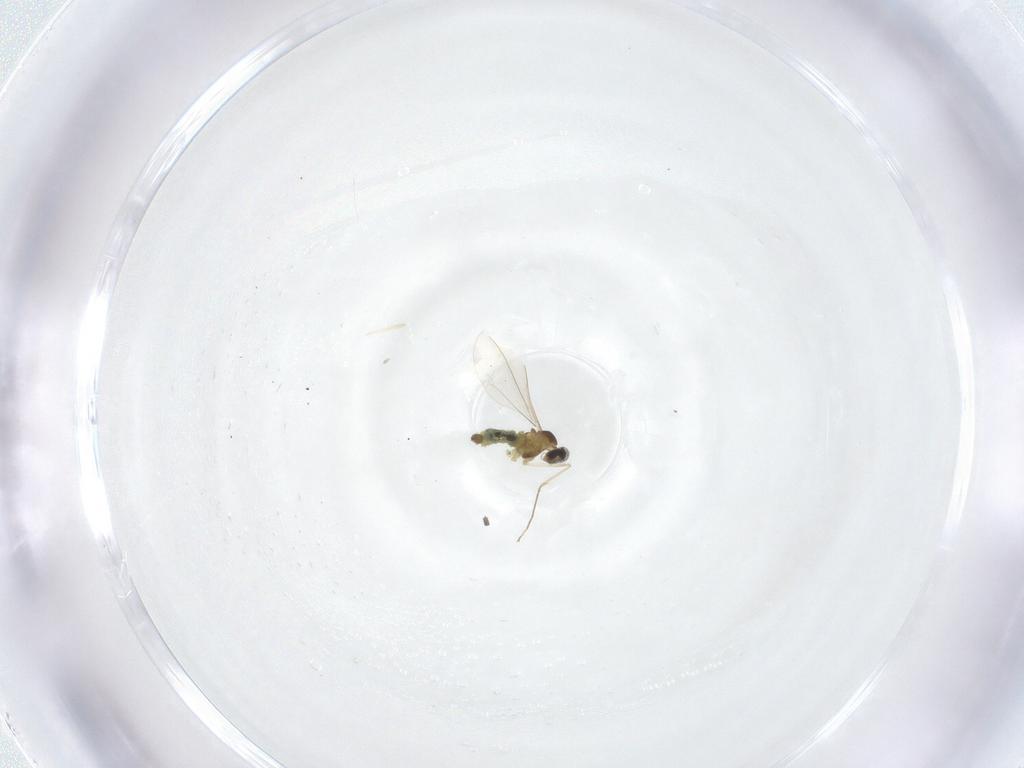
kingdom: Animalia
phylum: Arthropoda
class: Insecta
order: Diptera
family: Cecidomyiidae
